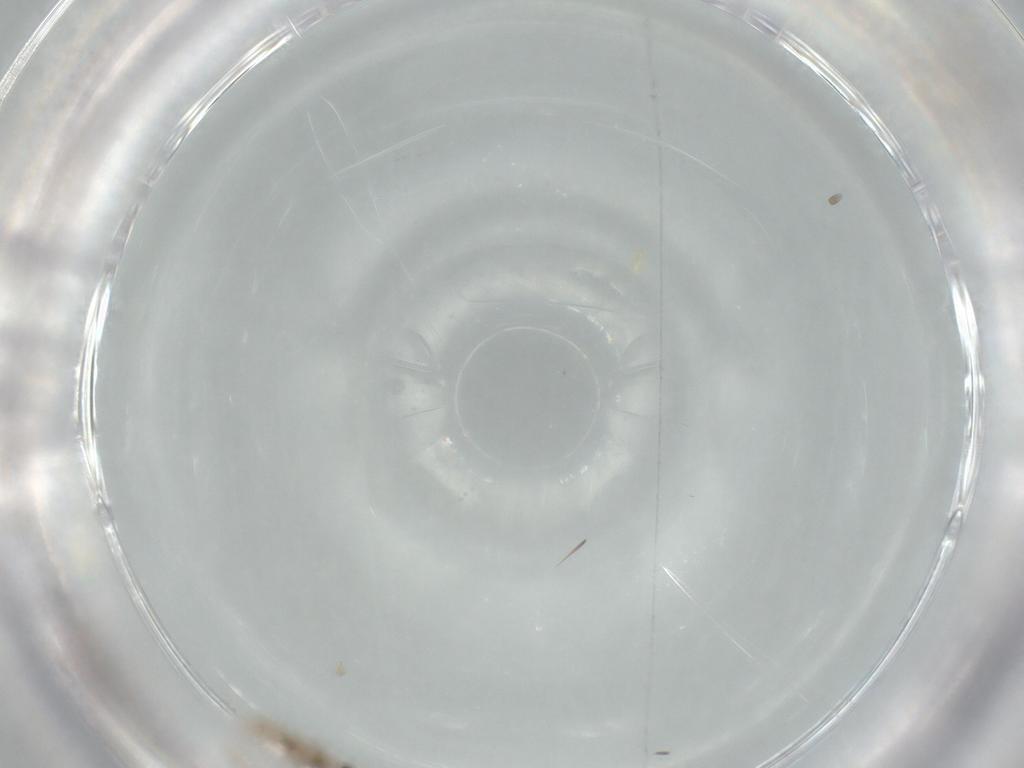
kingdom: Animalia
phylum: Arthropoda
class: Insecta
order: Diptera
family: Cecidomyiidae
